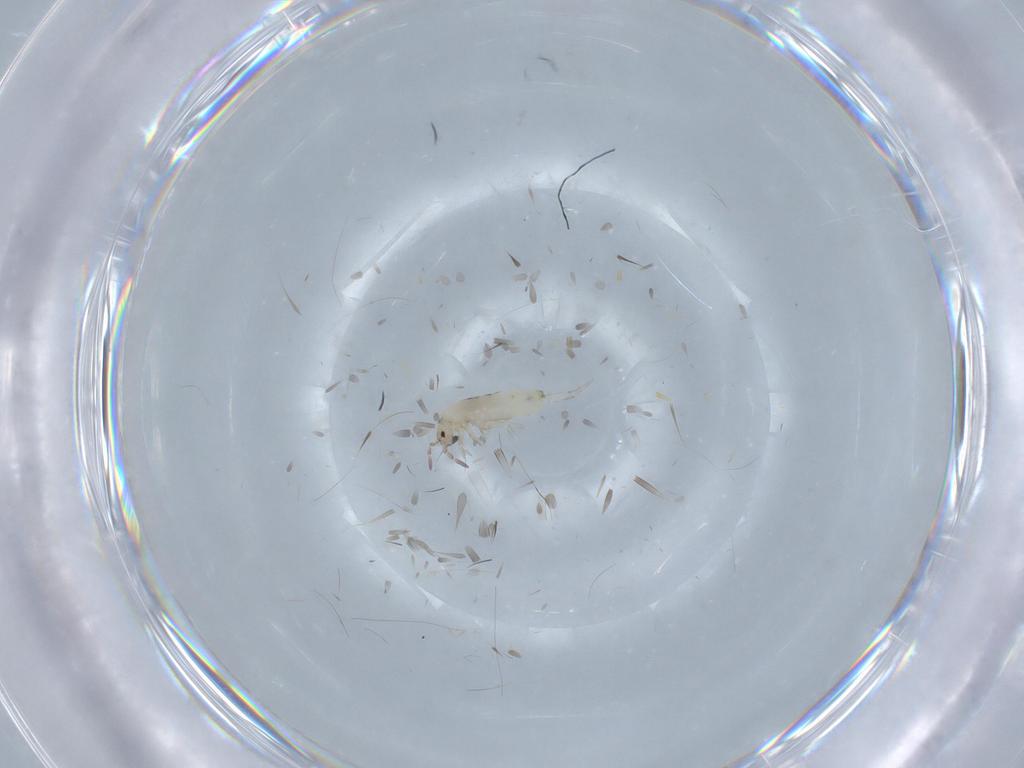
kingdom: Animalia
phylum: Arthropoda
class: Collembola
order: Entomobryomorpha
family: Entomobryidae
